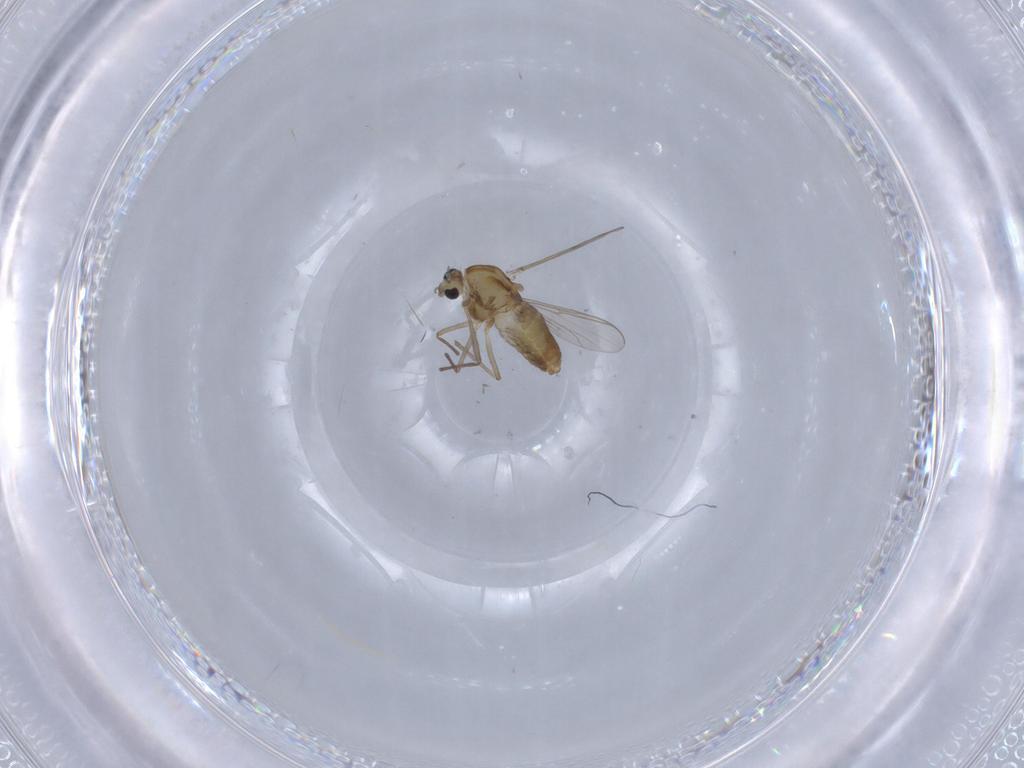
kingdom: Animalia
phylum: Arthropoda
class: Insecta
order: Diptera
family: Chironomidae
